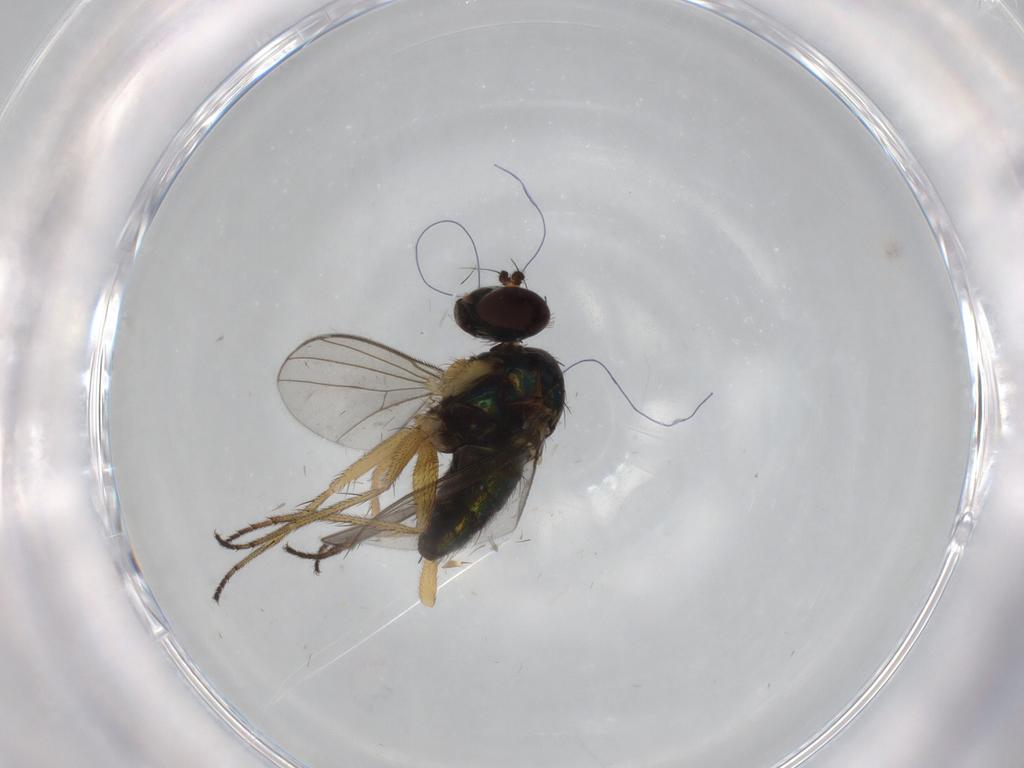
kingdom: Animalia
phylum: Arthropoda
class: Insecta
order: Diptera
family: Dolichopodidae
